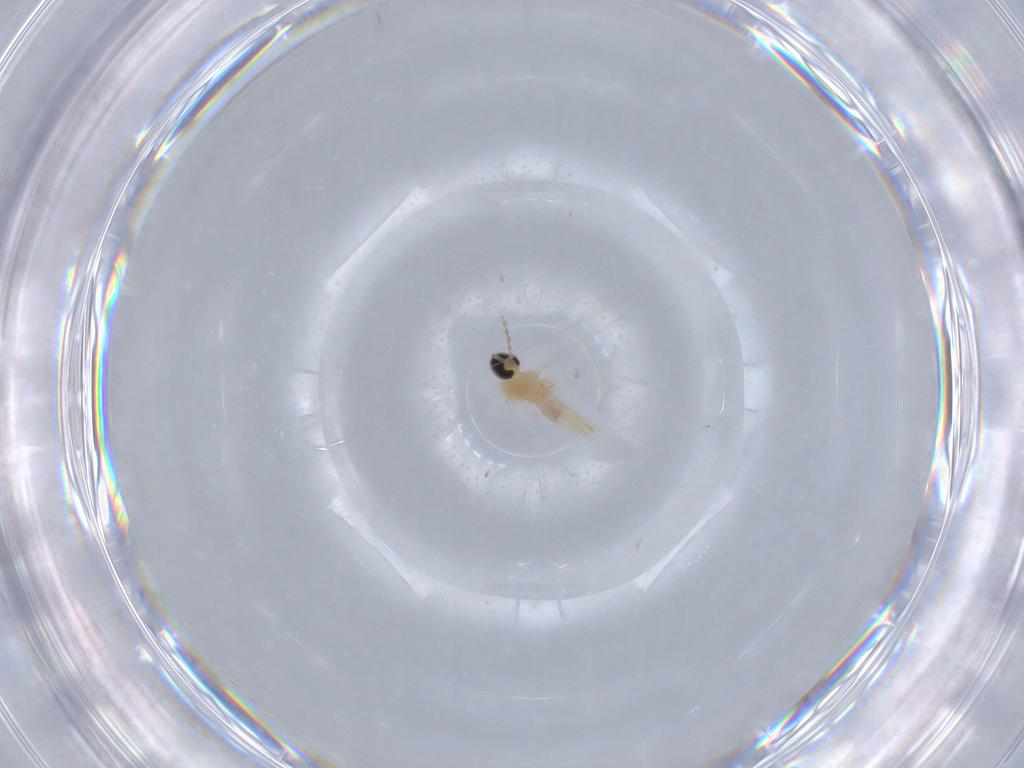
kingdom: Animalia
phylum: Arthropoda
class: Insecta
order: Diptera
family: Cecidomyiidae
